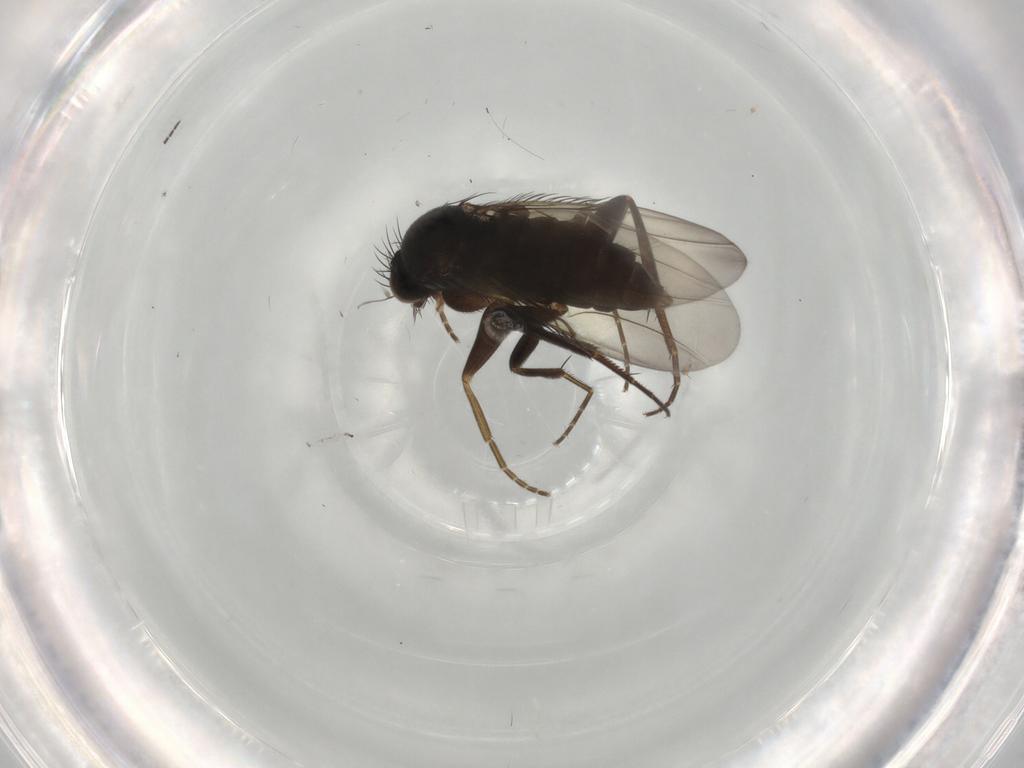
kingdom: Animalia
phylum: Arthropoda
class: Insecta
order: Diptera
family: Phoridae
